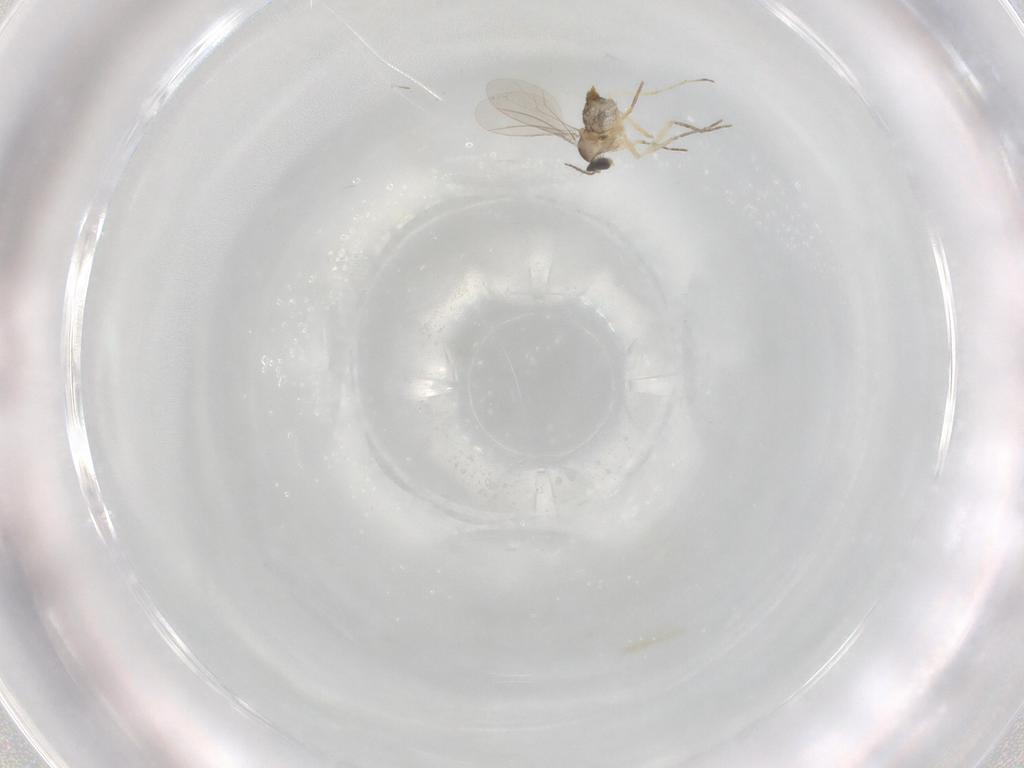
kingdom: Animalia
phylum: Arthropoda
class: Insecta
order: Diptera
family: Cecidomyiidae
